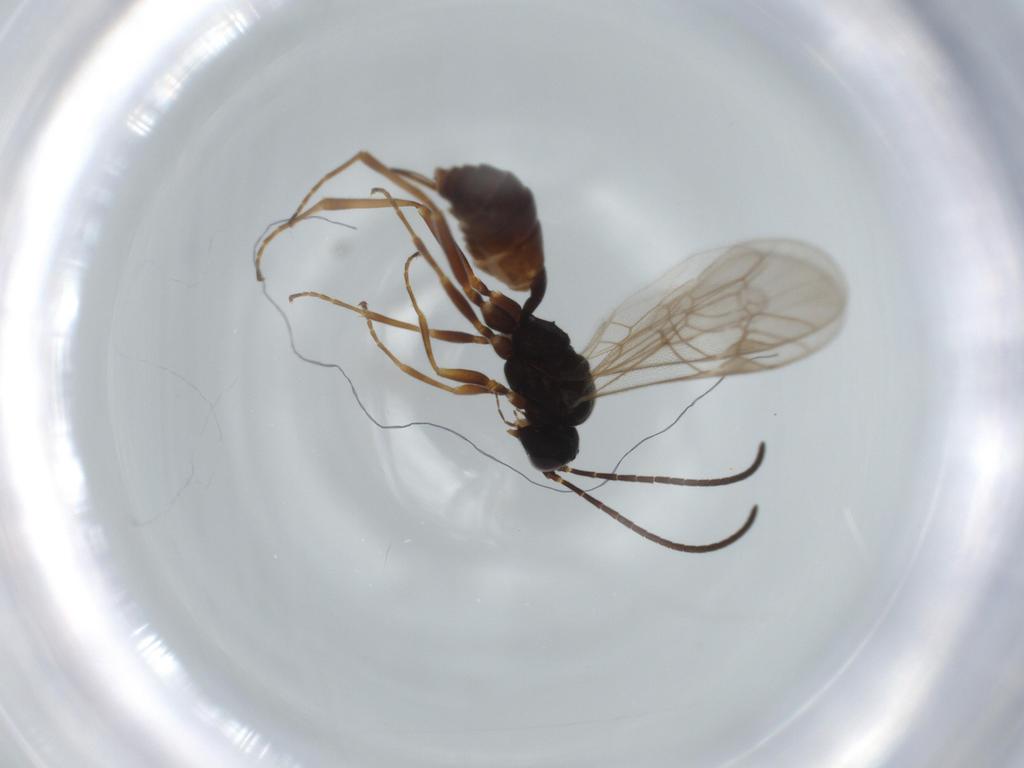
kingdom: Animalia
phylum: Arthropoda
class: Insecta
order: Hymenoptera
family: Ichneumonidae
